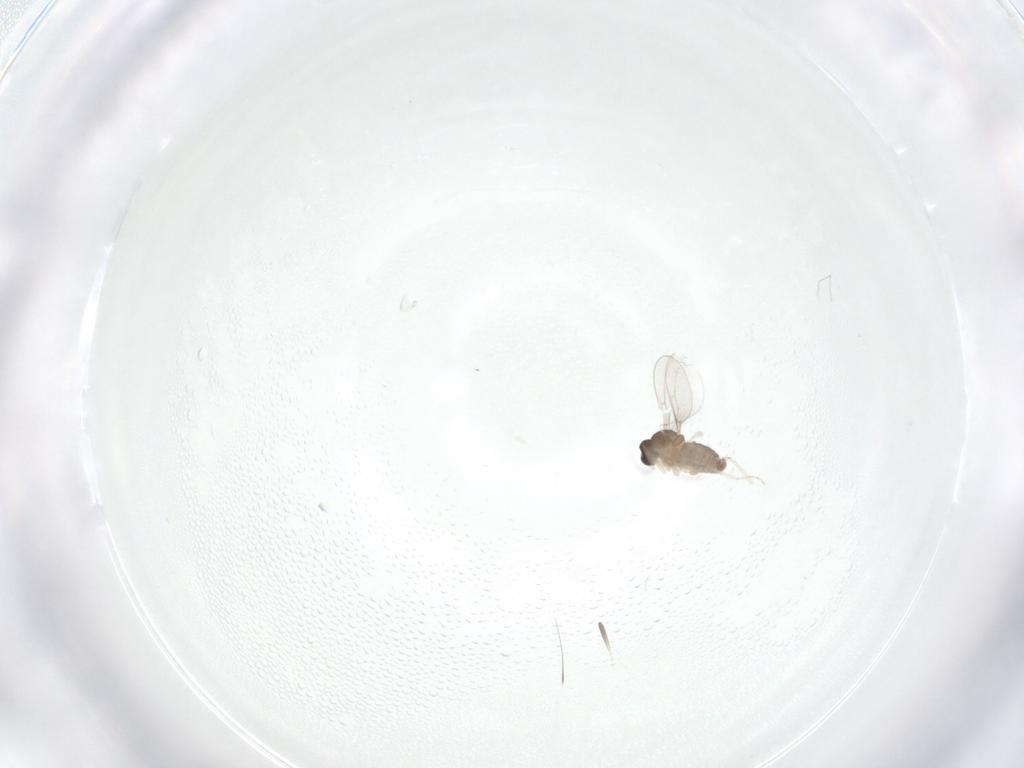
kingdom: Animalia
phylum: Arthropoda
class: Insecta
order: Diptera
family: Cecidomyiidae
